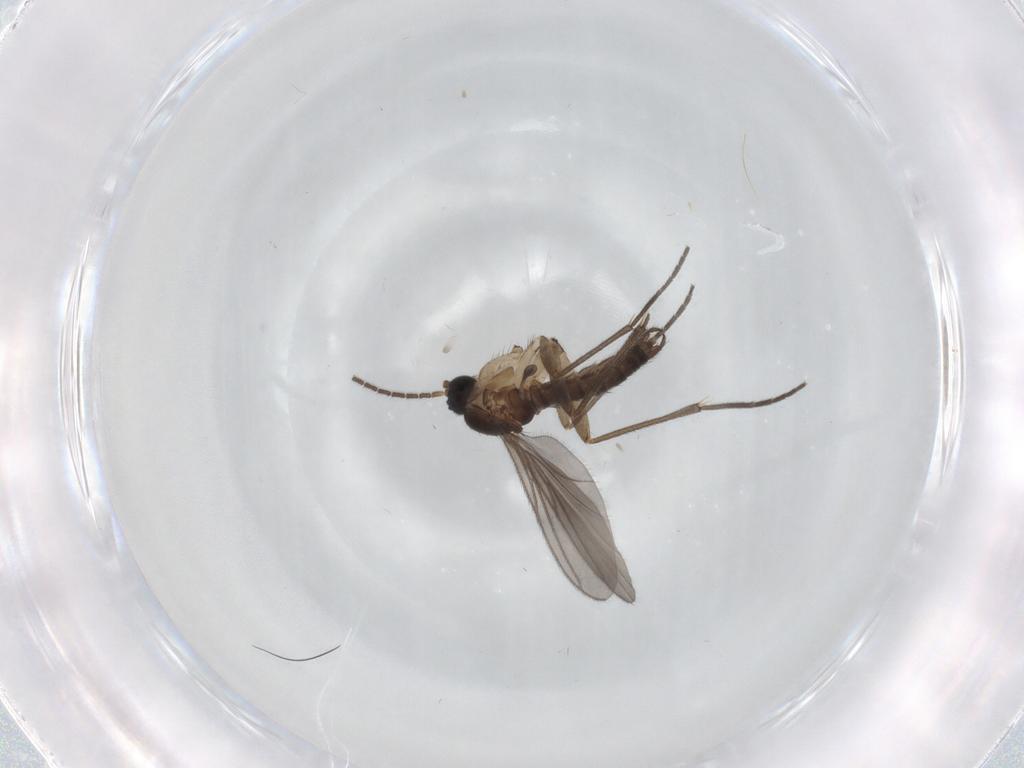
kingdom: Animalia
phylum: Arthropoda
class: Insecta
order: Diptera
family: Sciaridae
